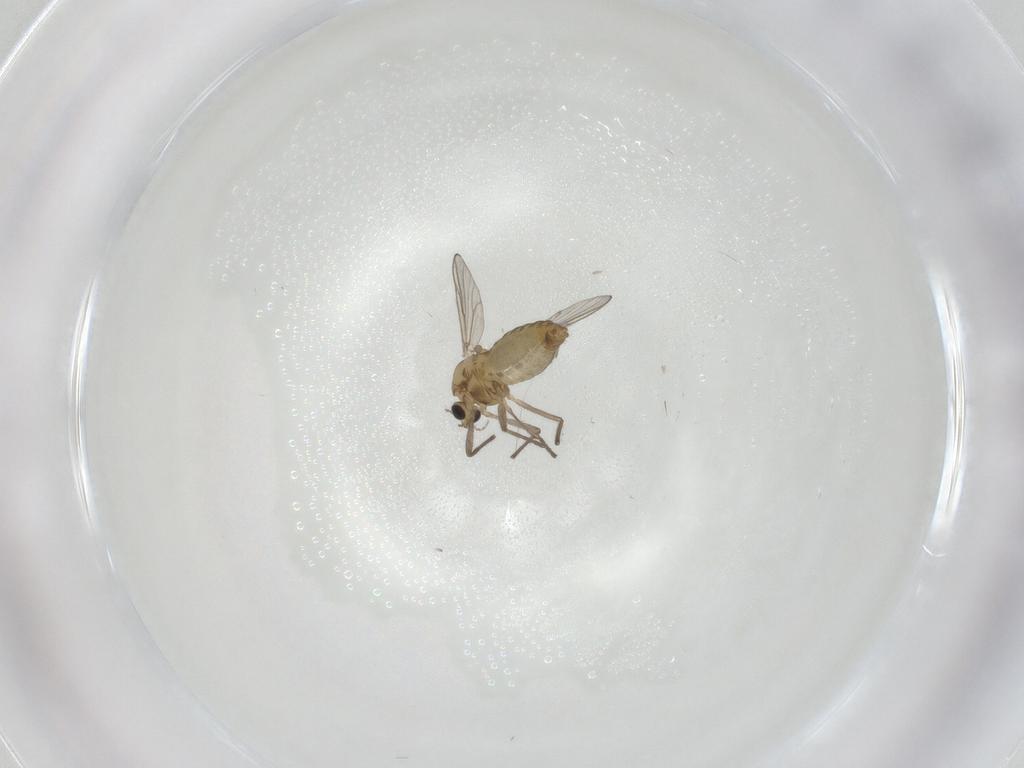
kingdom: Animalia
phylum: Arthropoda
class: Insecta
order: Diptera
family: Chironomidae
